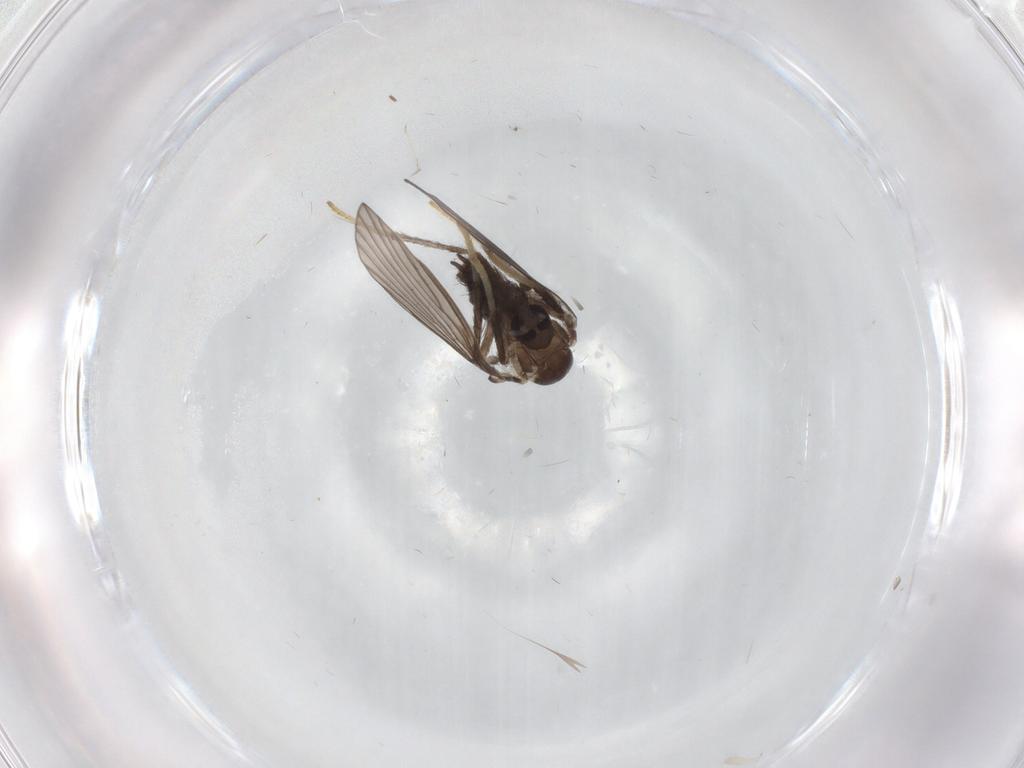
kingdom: Animalia
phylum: Arthropoda
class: Insecta
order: Diptera
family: Sciaridae
